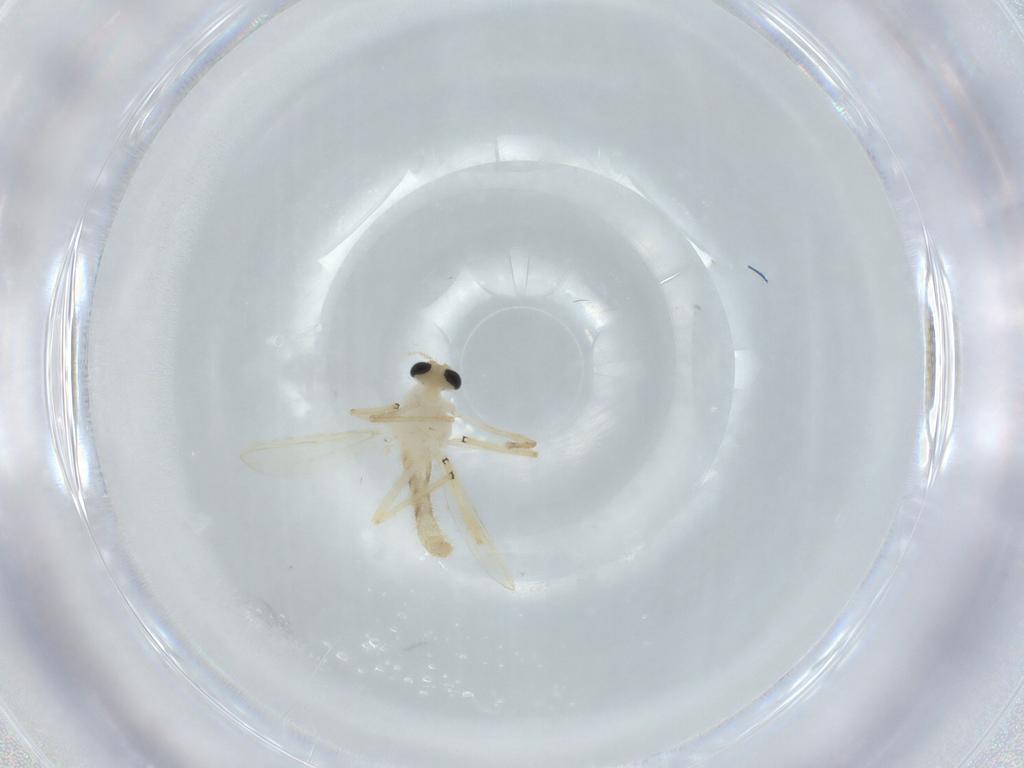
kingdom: Animalia
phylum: Arthropoda
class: Insecta
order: Diptera
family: Chironomidae
